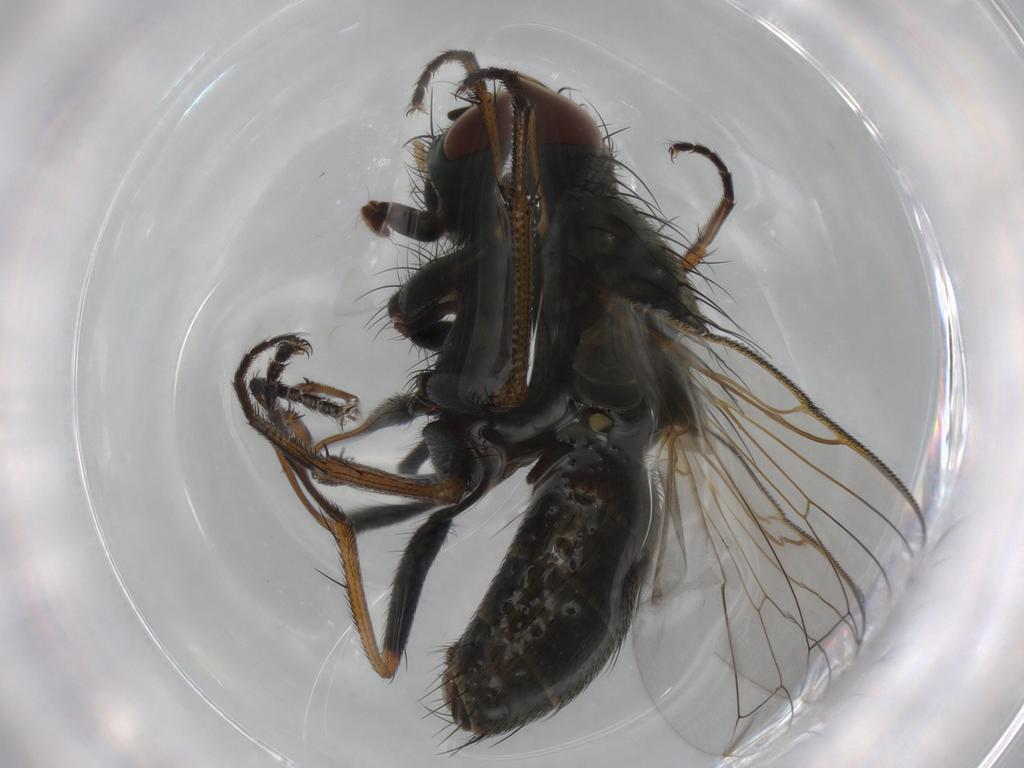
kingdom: Animalia
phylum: Arthropoda
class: Insecta
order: Diptera
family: Muscidae
